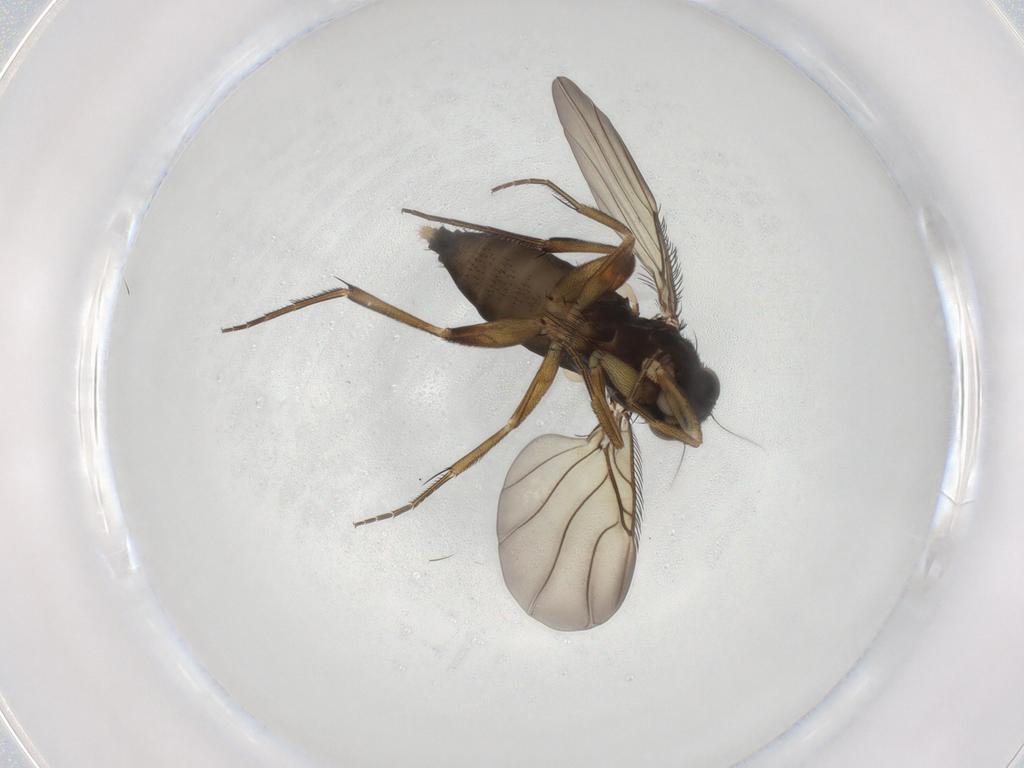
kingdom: Animalia
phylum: Arthropoda
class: Insecta
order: Diptera
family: Phoridae
